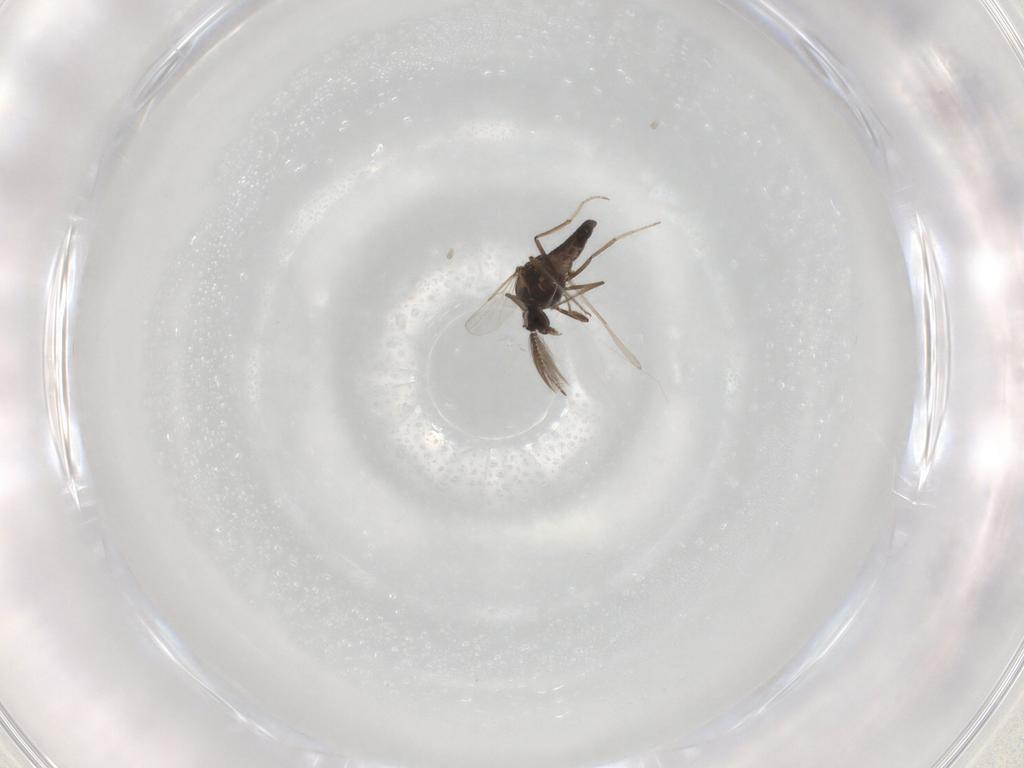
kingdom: Animalia
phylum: Arthropoda
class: Insecta
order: Diptera
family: Ceratopogonidae
